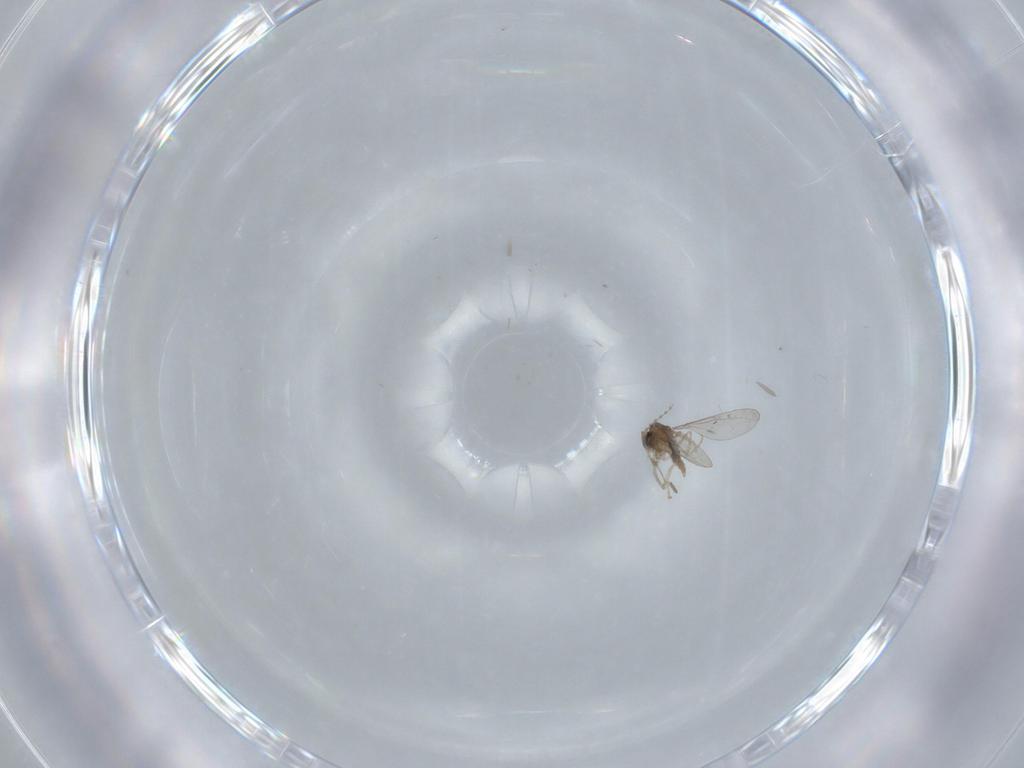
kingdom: Animalia
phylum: Arthropoda
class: Insecta
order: Diptera
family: Cecidomyiidae
